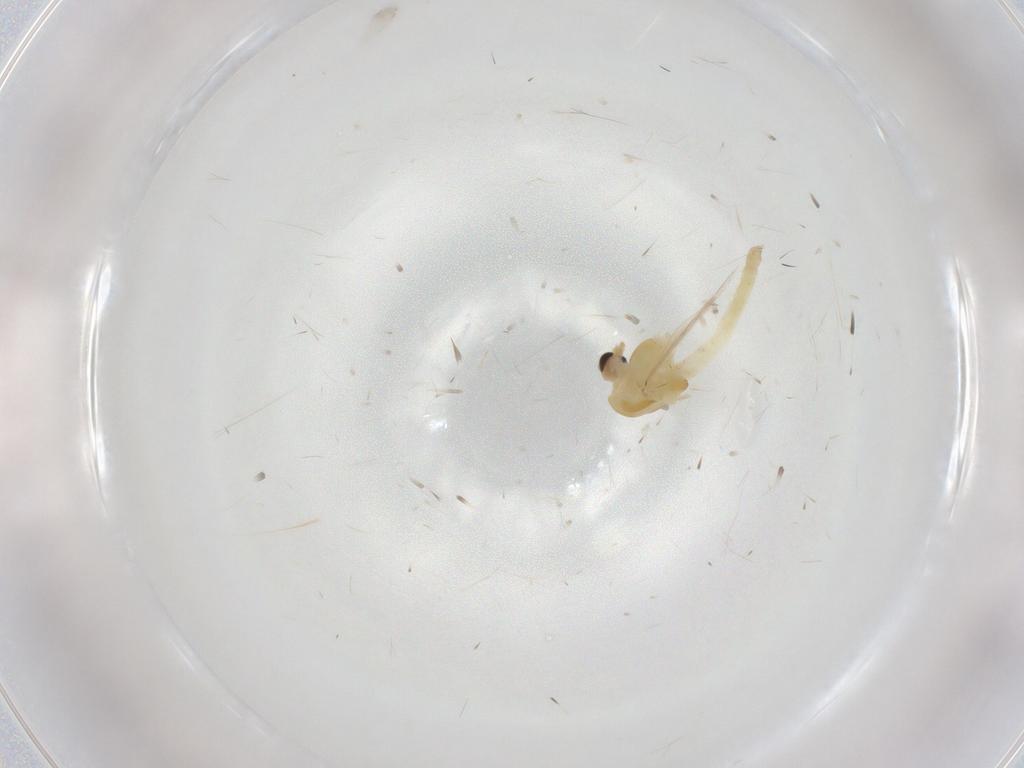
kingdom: Animalia
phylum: Arthropoda
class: Insecta
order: Diptera
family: Chironomidae
